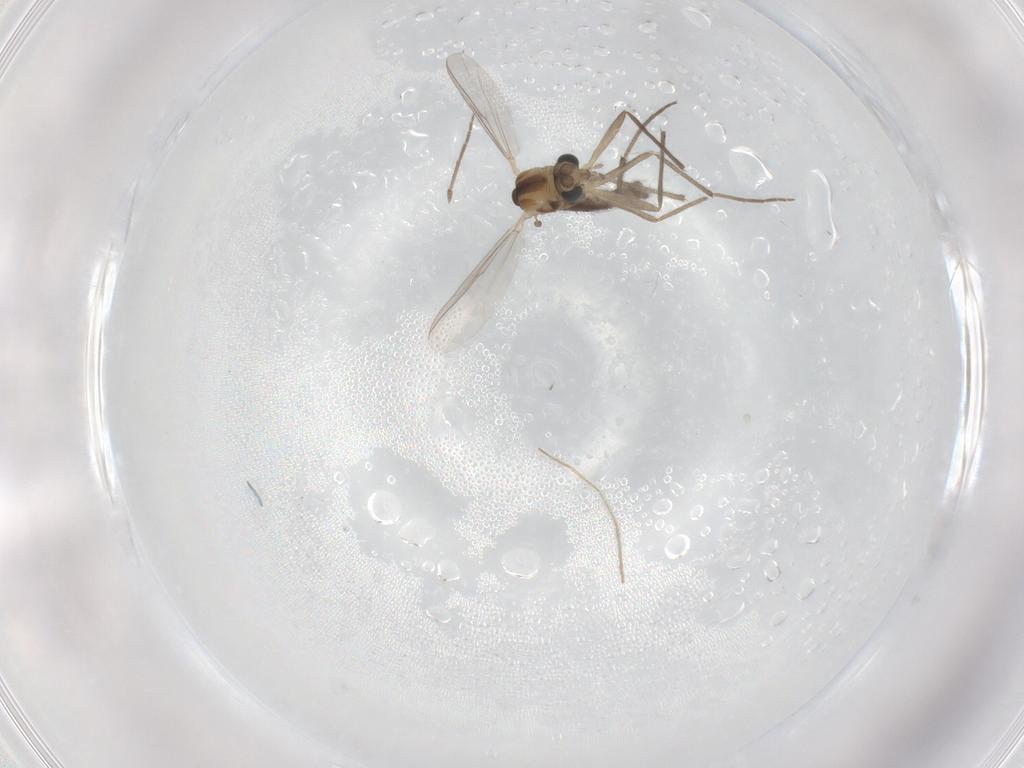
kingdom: Animalia
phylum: Arthropoda
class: Insecta
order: Diptera
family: Chironomidae
